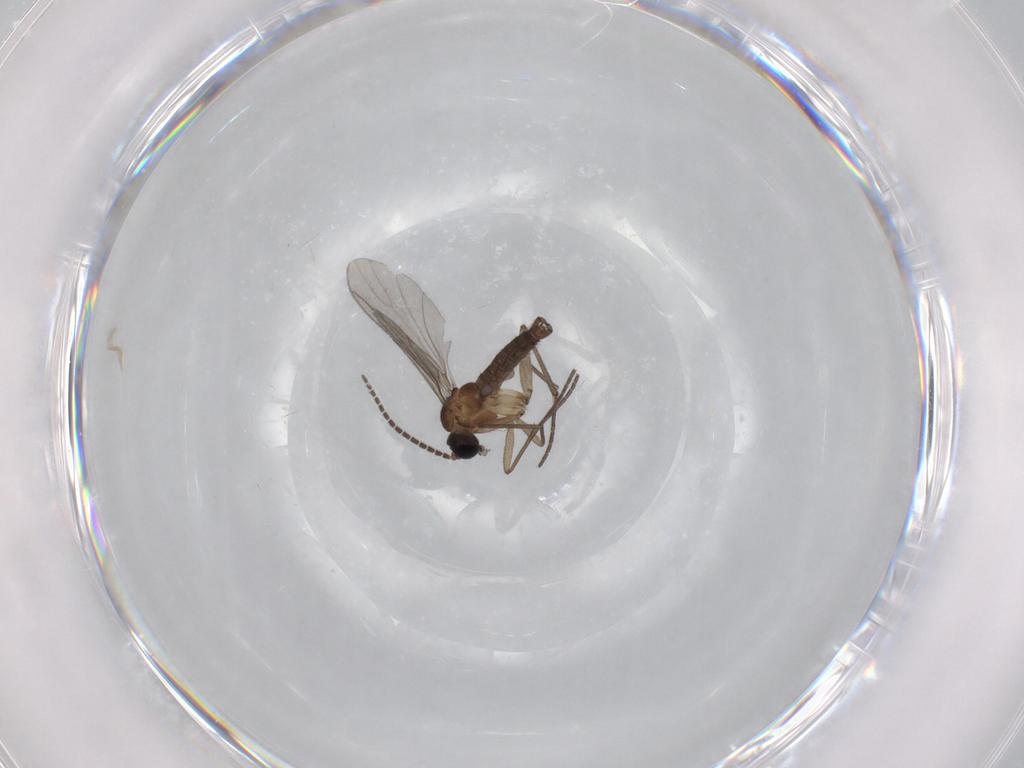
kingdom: Animalia
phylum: Arthropoda
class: Insecta
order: Diptera
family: Sciaridae
